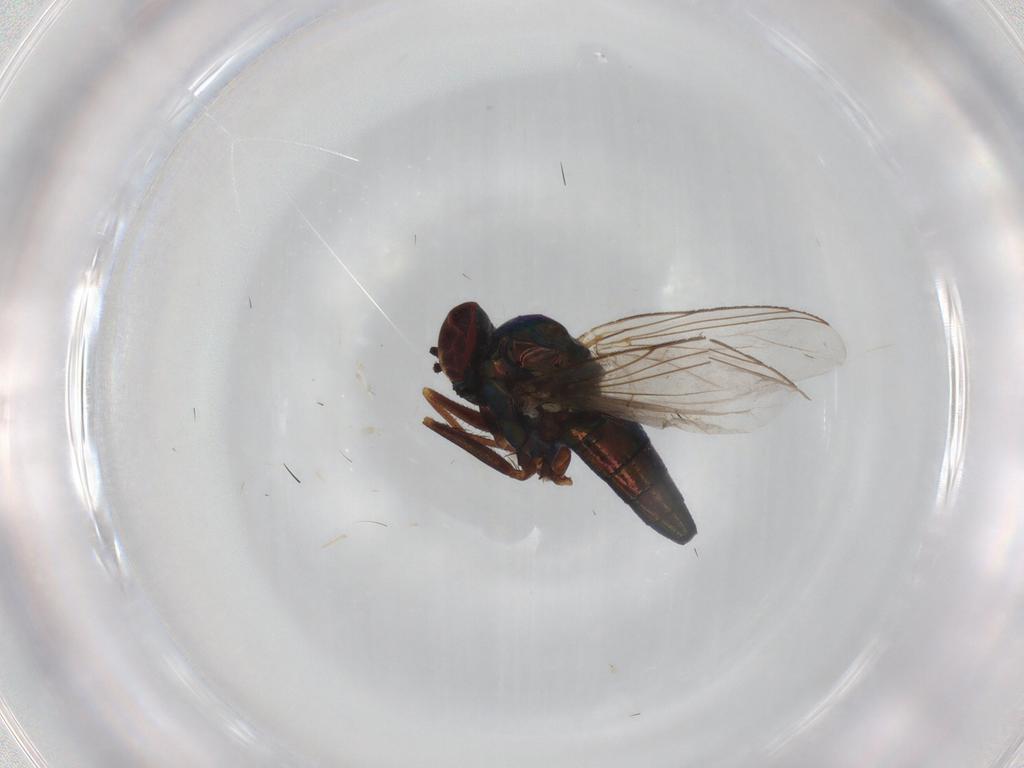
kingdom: Animalia
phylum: Arthropoda
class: Insecta
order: Diptera
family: Dolichopodidae
